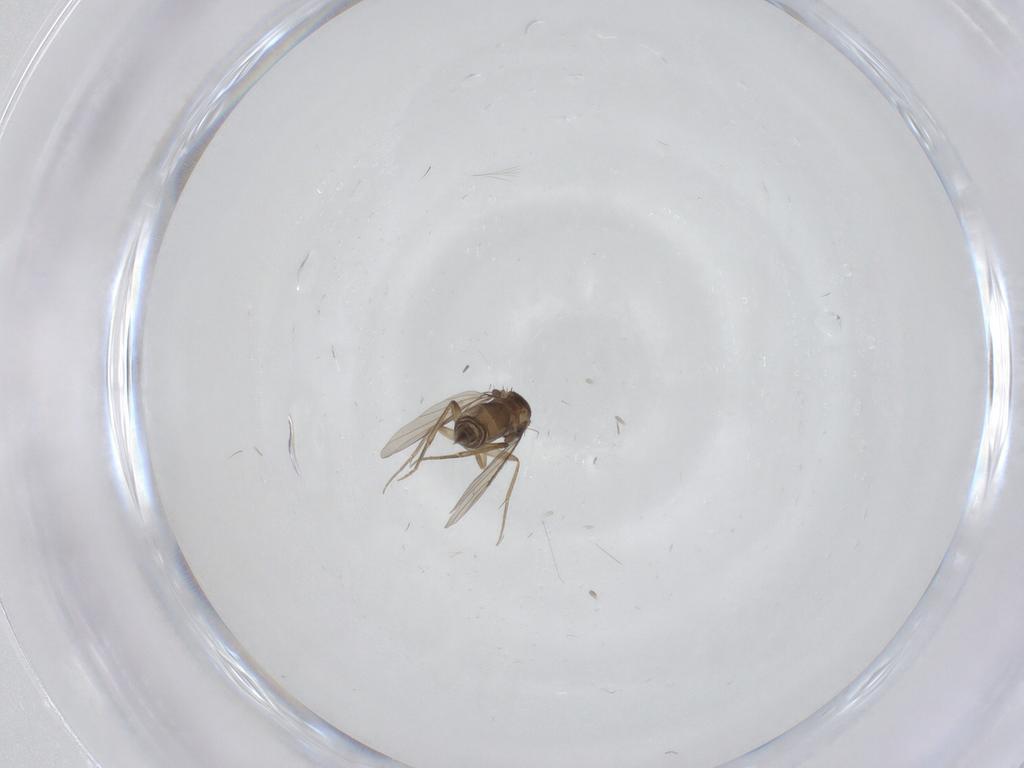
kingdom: Animalia
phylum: Arthropoda
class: Insecta
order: Diptera
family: Phoridae
